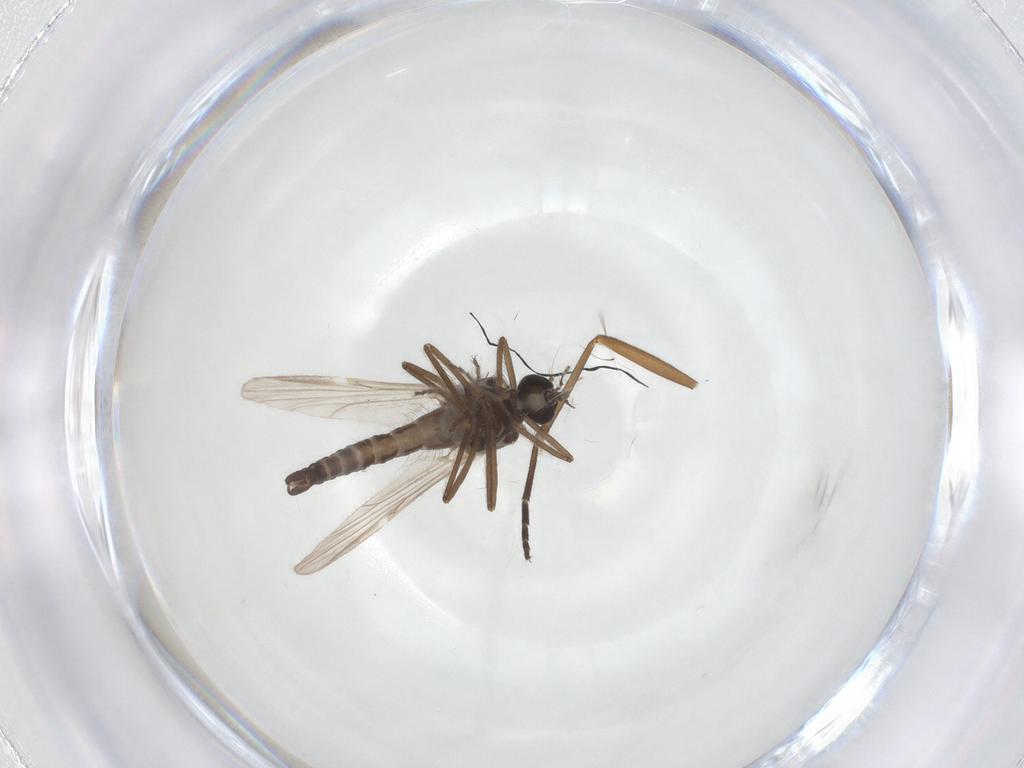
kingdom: Animalia
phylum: Arthropoda
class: Insecta
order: Diptera
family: Ceratopogonidae
